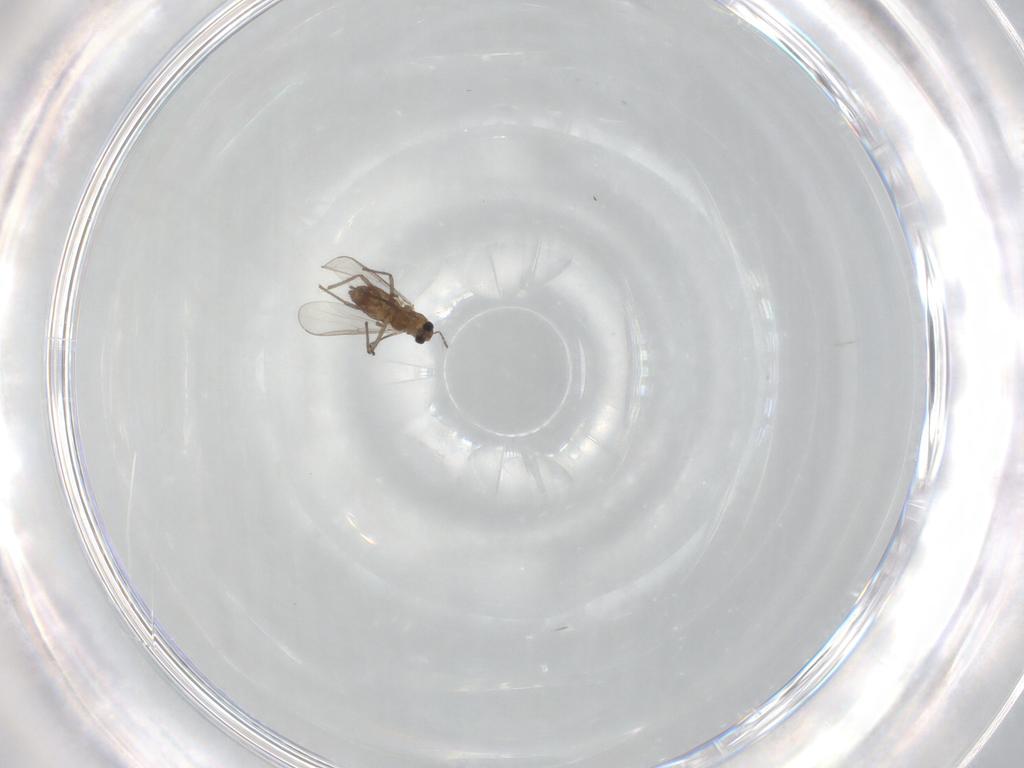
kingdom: Animalia
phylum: Arthropoda
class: Insecta
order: Diptera
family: Chironomidae
